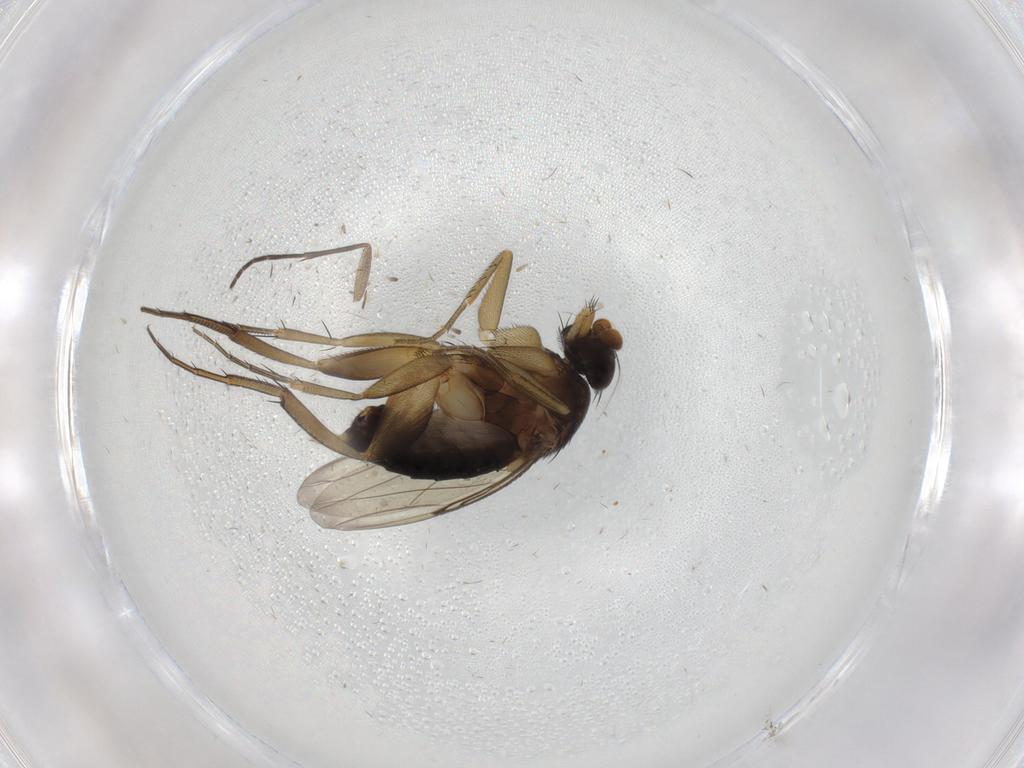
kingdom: Animalia
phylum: Arthropoda
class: Insecta
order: Diptera
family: Phoridae
